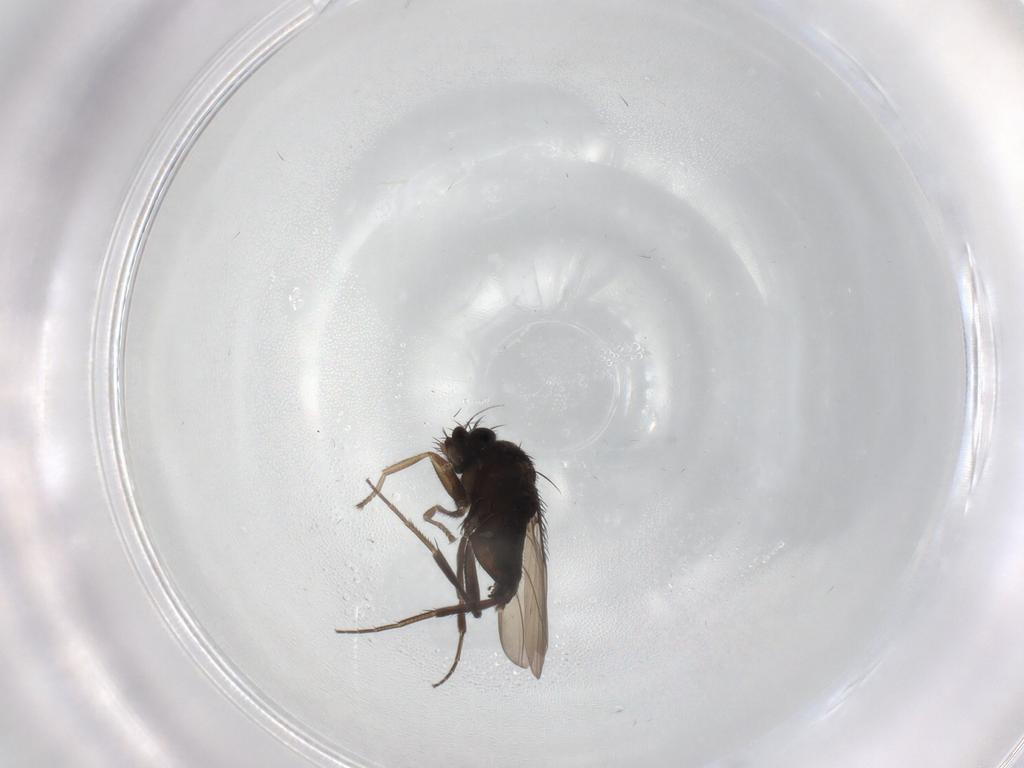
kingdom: Animalia
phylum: Arthropoda
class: Insecta
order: Diptera
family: Phoridae
